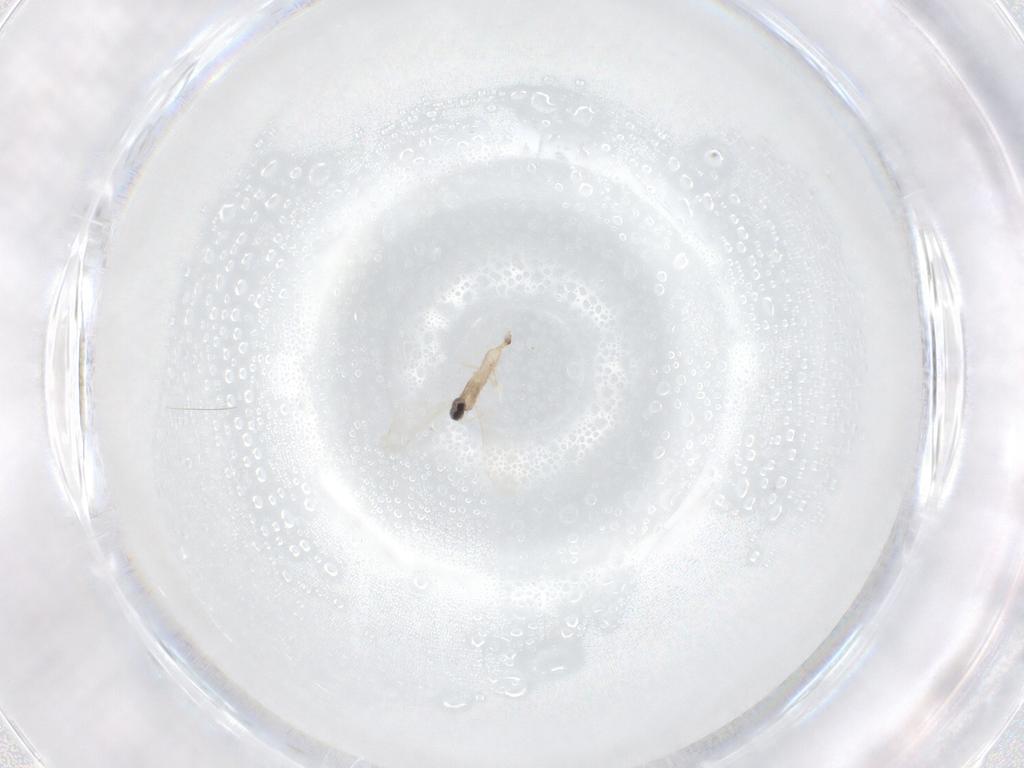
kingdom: Animalia
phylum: Arthropoda
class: Insecta
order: Diptera
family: Cecidomyiidae
